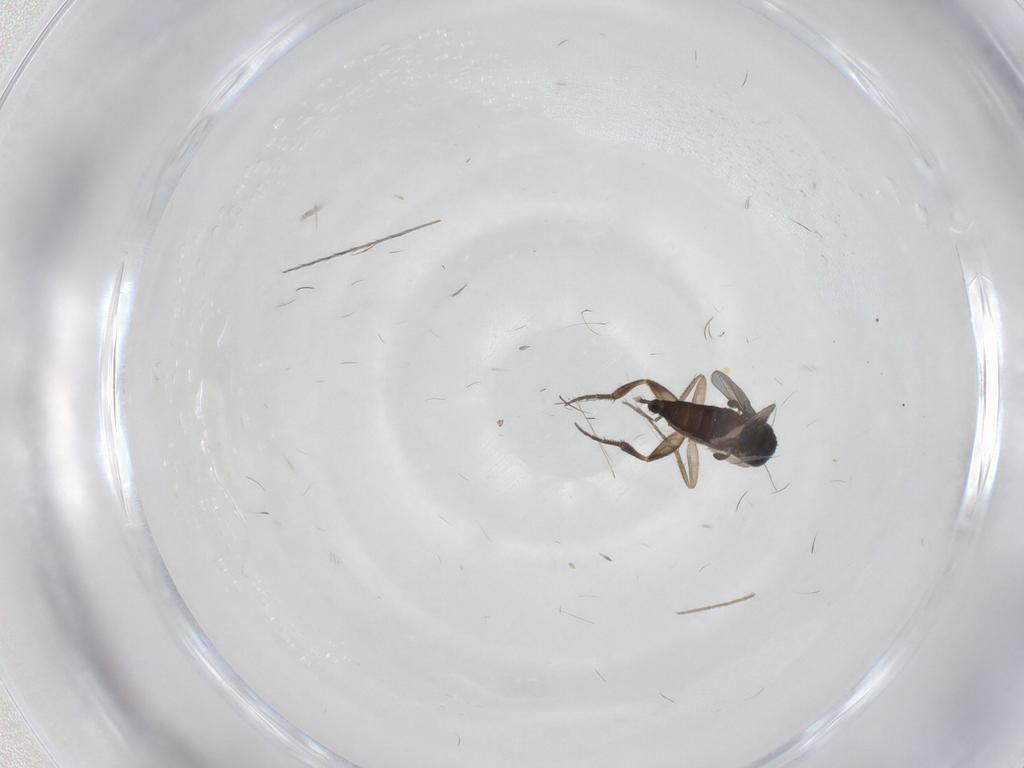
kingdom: Animalia
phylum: Arthropoda
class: Insecta
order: Diptera
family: Phoridae
